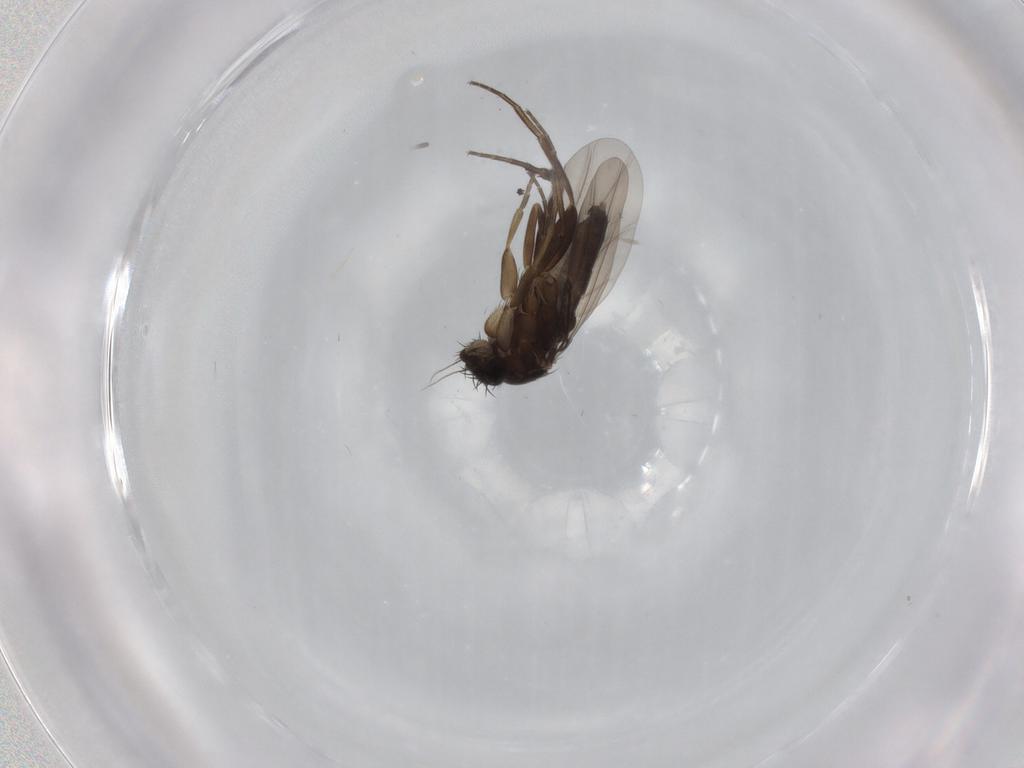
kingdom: Animalia
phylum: Arthropoda
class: Insecta
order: Diptera
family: Phoridae
